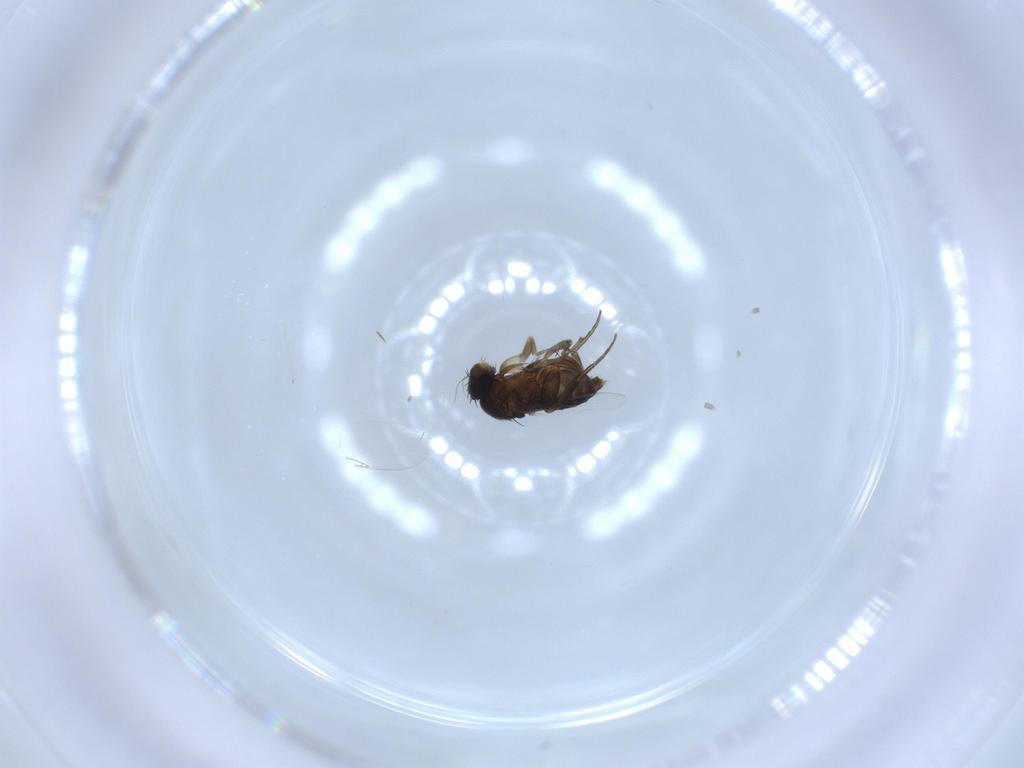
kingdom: Animalia
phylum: Arthropoda
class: Insecta
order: Diptera
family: Phoridae
